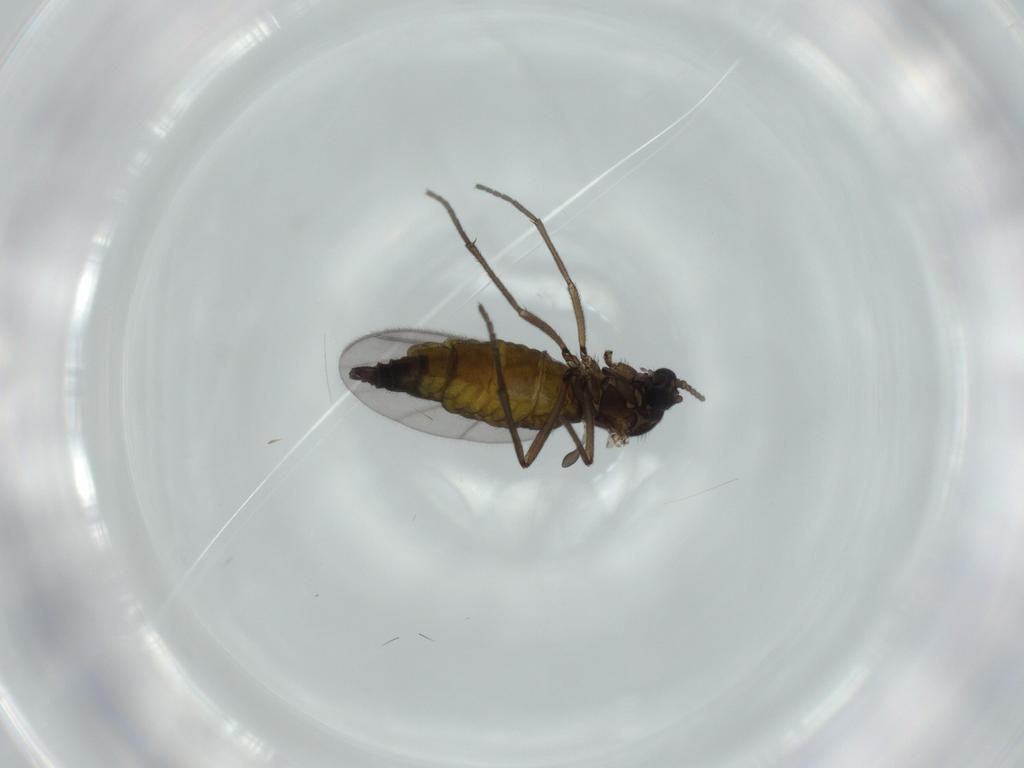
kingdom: Animalia
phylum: Arthropoda
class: Insecta
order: Diptera
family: Sciaridae
